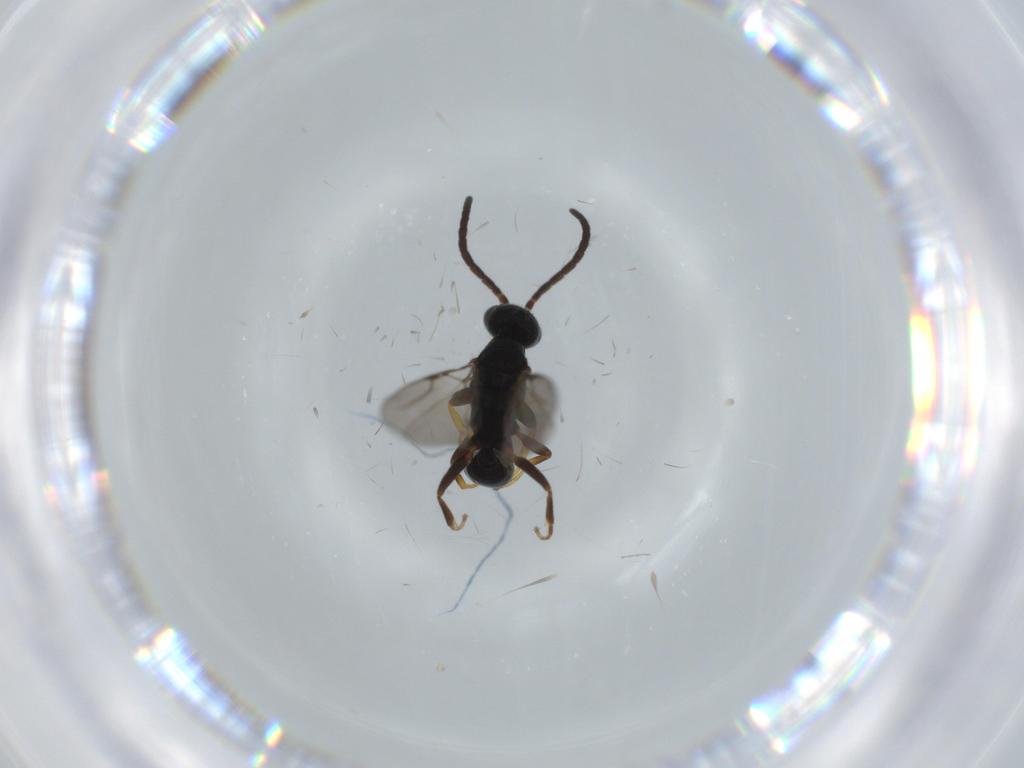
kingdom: Animalia
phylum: Arthropoda
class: Insecta
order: Hymenoptera
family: Bethylidae
